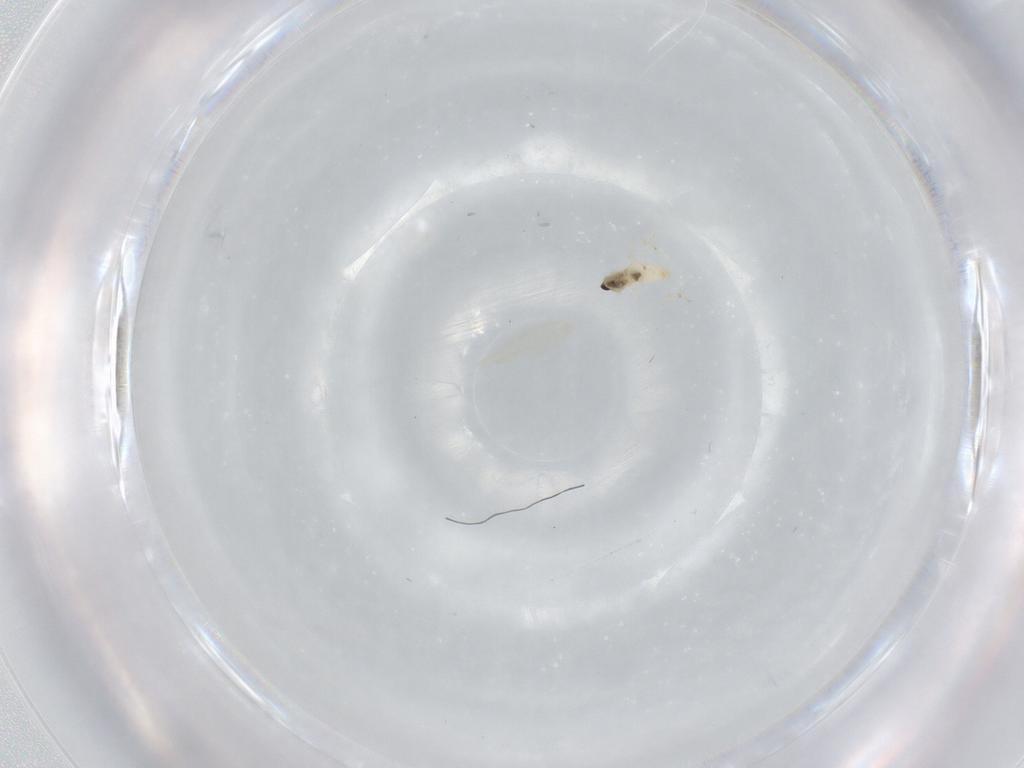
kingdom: Animalia
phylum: Arthropoda
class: Insecta
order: Diptera
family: Cecidomyiidae
